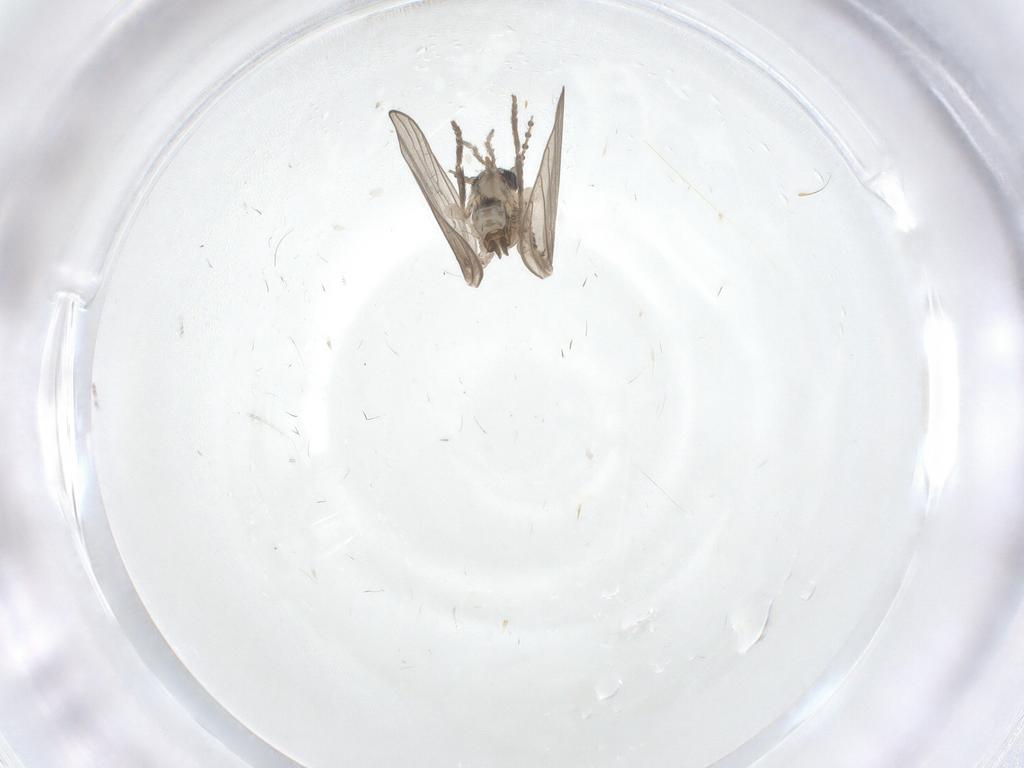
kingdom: Animalia
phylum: Arthropoda
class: Insecta
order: Diptera
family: Psychodidae
